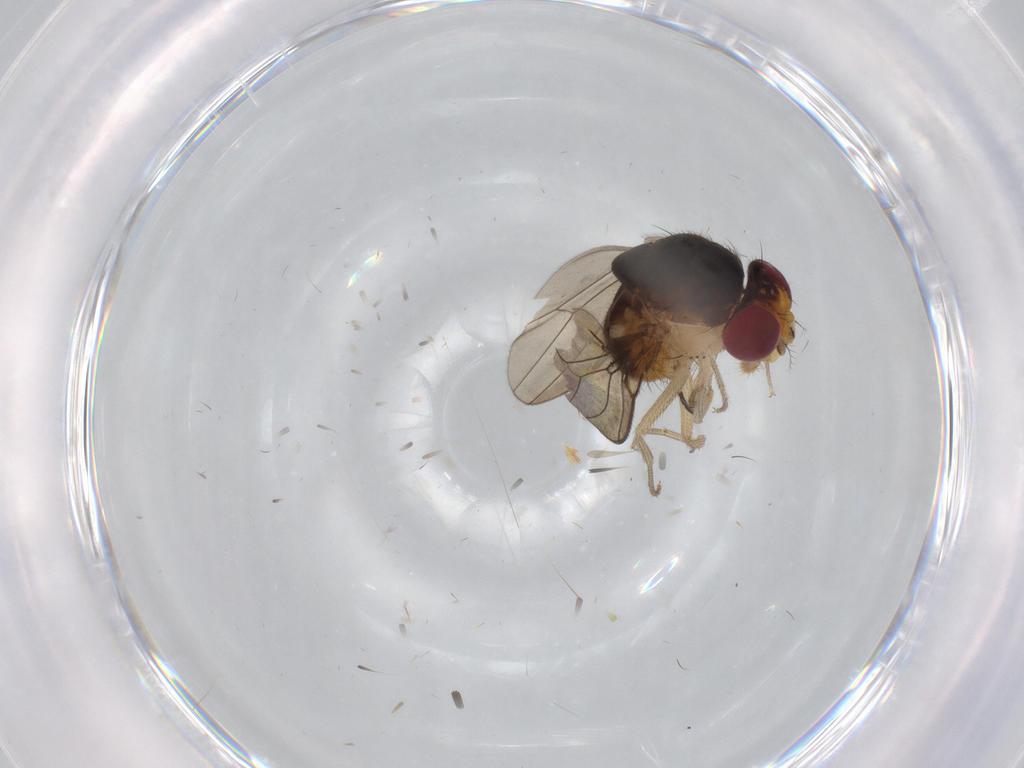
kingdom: Animalia
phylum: Arthropoda
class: Insecta
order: Diptera
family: Drosophilidae
